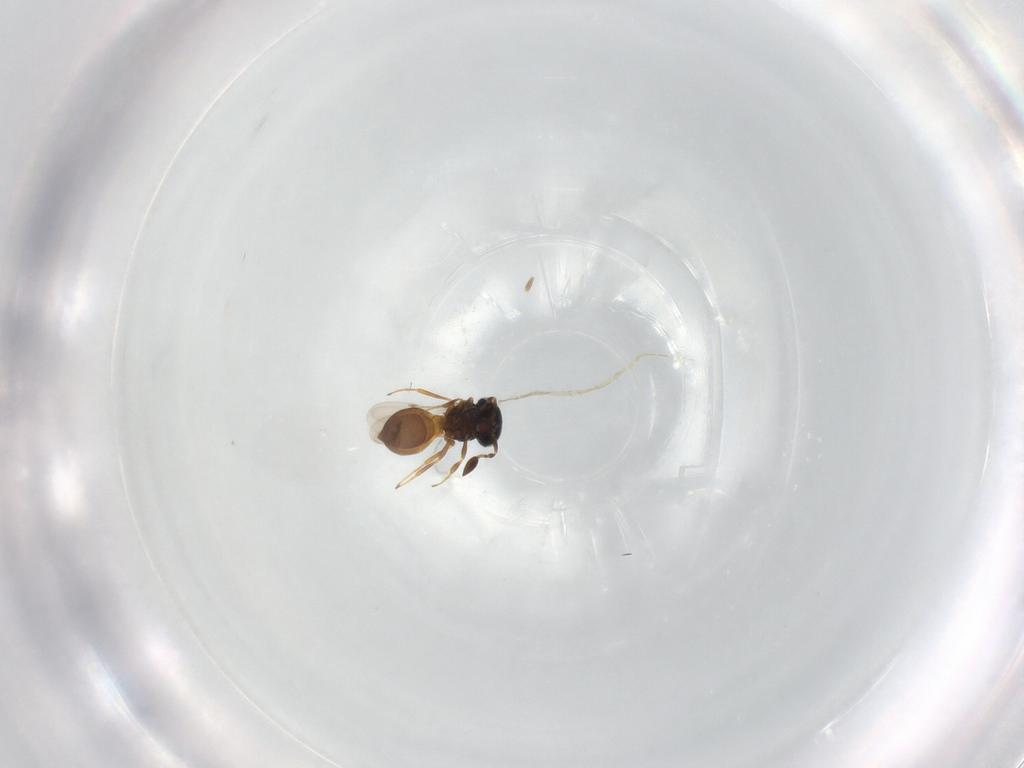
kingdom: Animalia
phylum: Arthropoda
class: Insecta
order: Hymenoptera
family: Scelionidae
